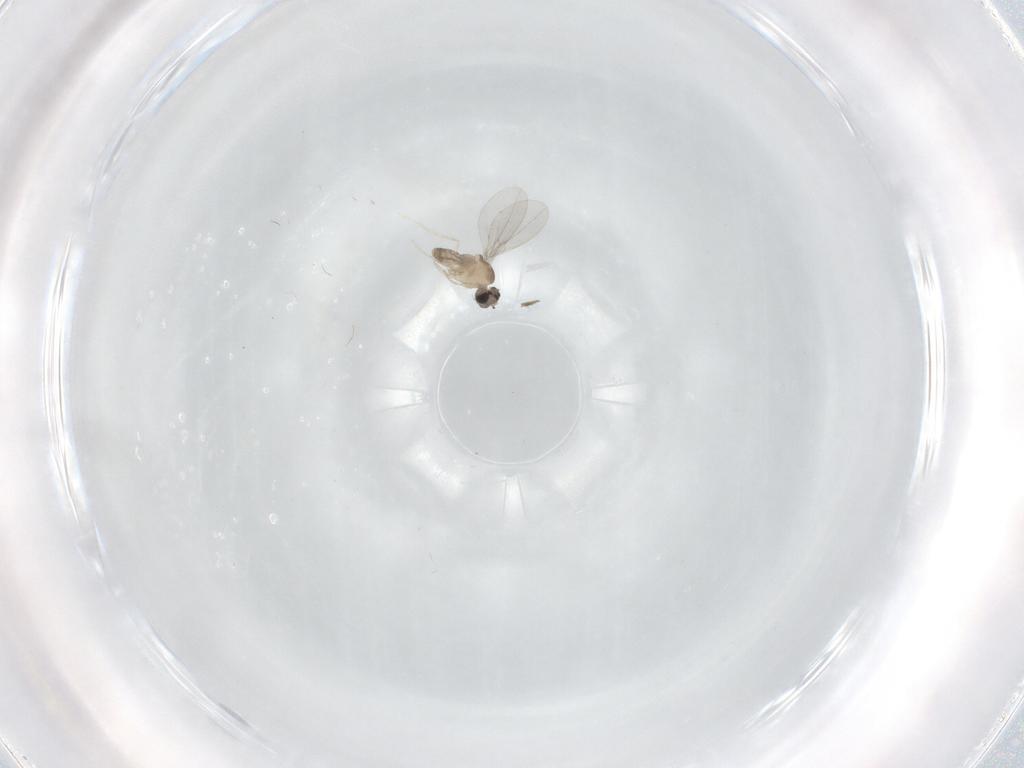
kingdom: Animalia
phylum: Arthropoda
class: Insecta
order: Diptera
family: Cecidomyiidae
